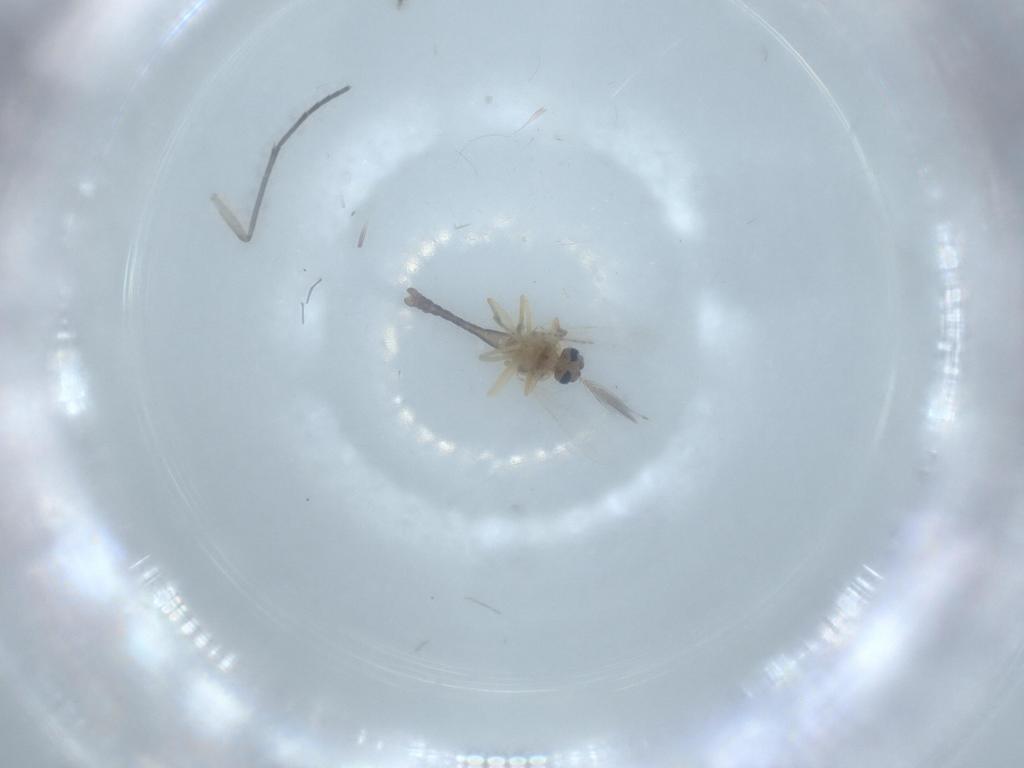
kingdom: Animalia
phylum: Arthropoda
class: Insecta
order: Diptera
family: Ceratopogonidae
